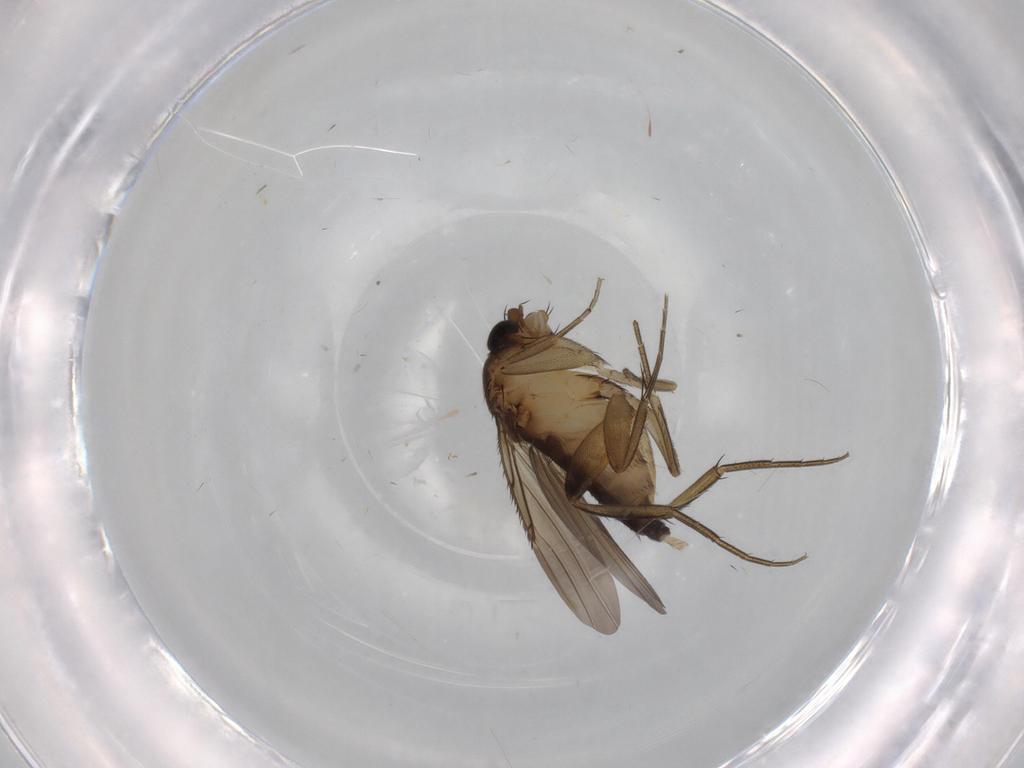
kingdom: Animalia
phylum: Arthropoda
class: Insecta
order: Diptera
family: Phoridae
